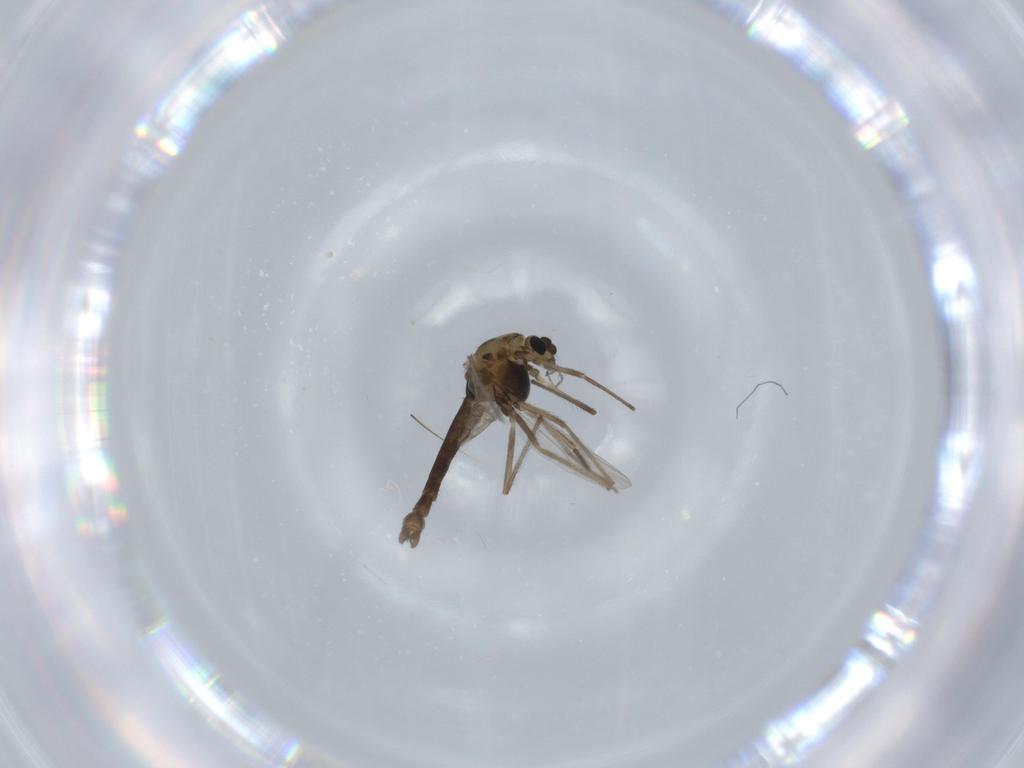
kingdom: Animalia
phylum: Arthropoda
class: Insecta
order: Diptera
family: Chironomidae
